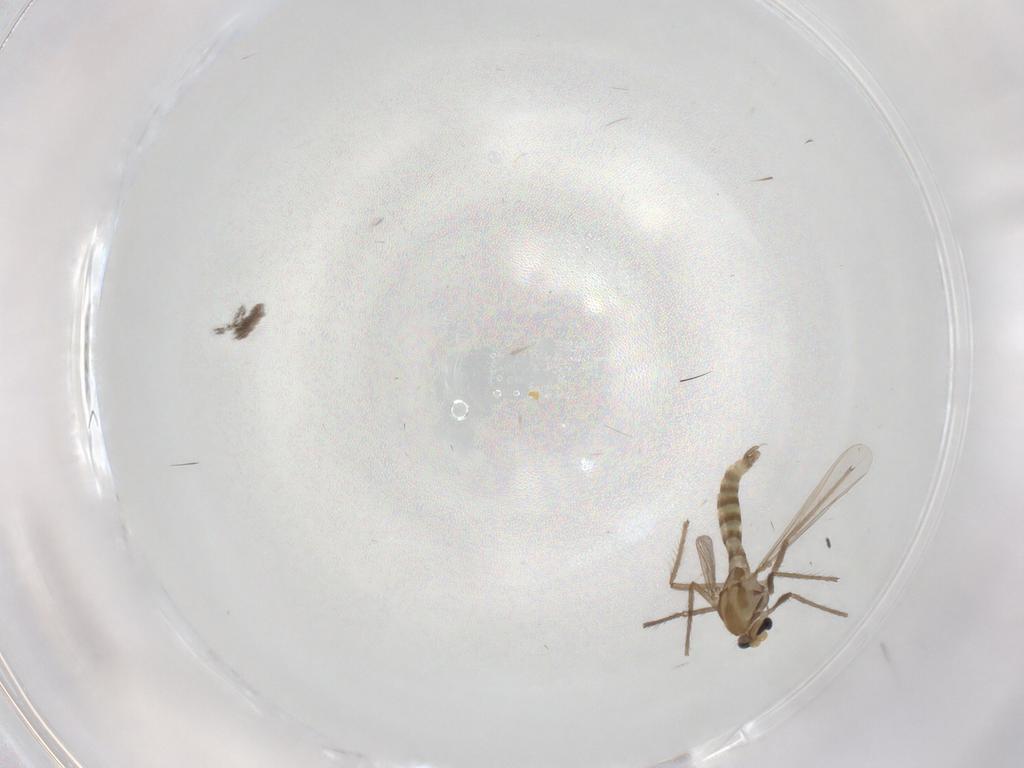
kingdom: Animalia
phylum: Arthropoda
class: Insecta
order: Diptera
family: Chironomidae
